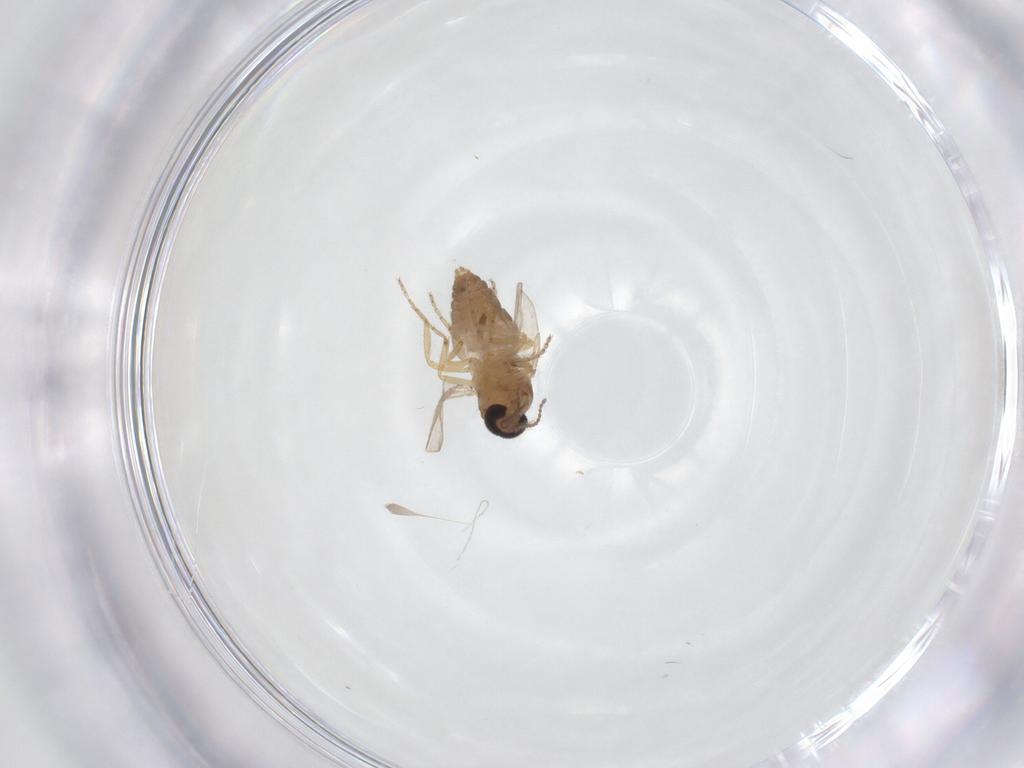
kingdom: Animalia
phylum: Arthropoda
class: Insecta
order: Diptera
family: Ceratopogonidae
